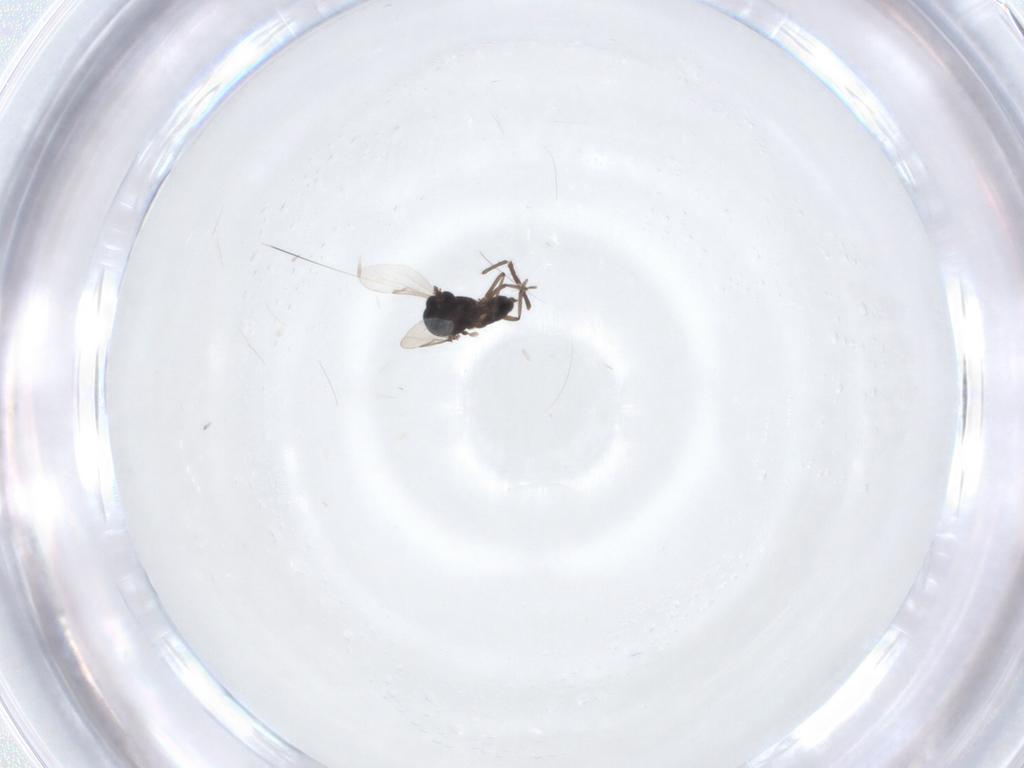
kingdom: Animalia
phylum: Arthropoda
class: Insecta
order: Diptera
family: Ceratopogonidae
